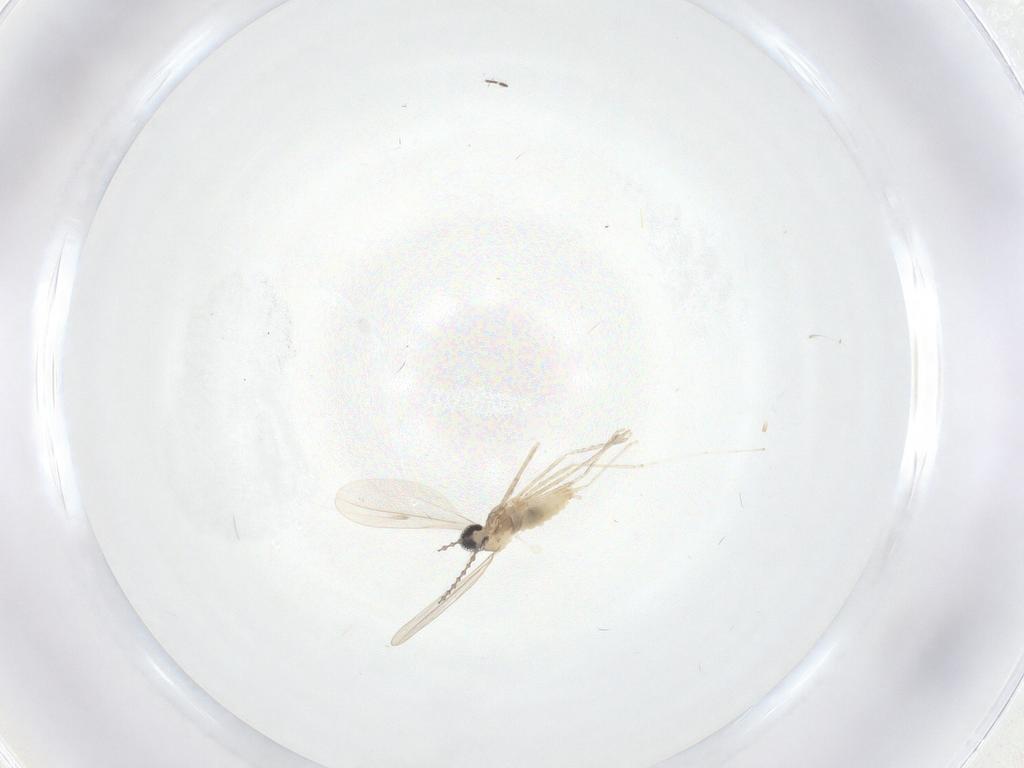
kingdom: Animalia
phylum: Arthropoda
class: Insecta
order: Diptera
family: Cecidomyiidae
